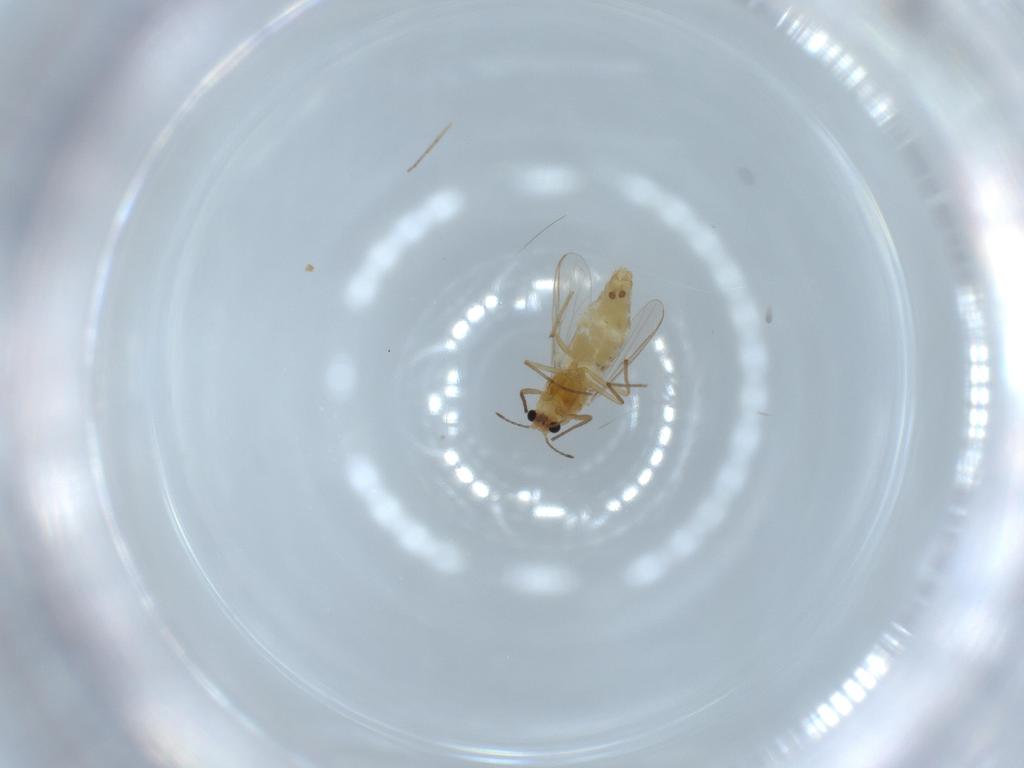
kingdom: Animalia
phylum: Arthropoda
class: Insecta
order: Diptera
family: Chironomidae
